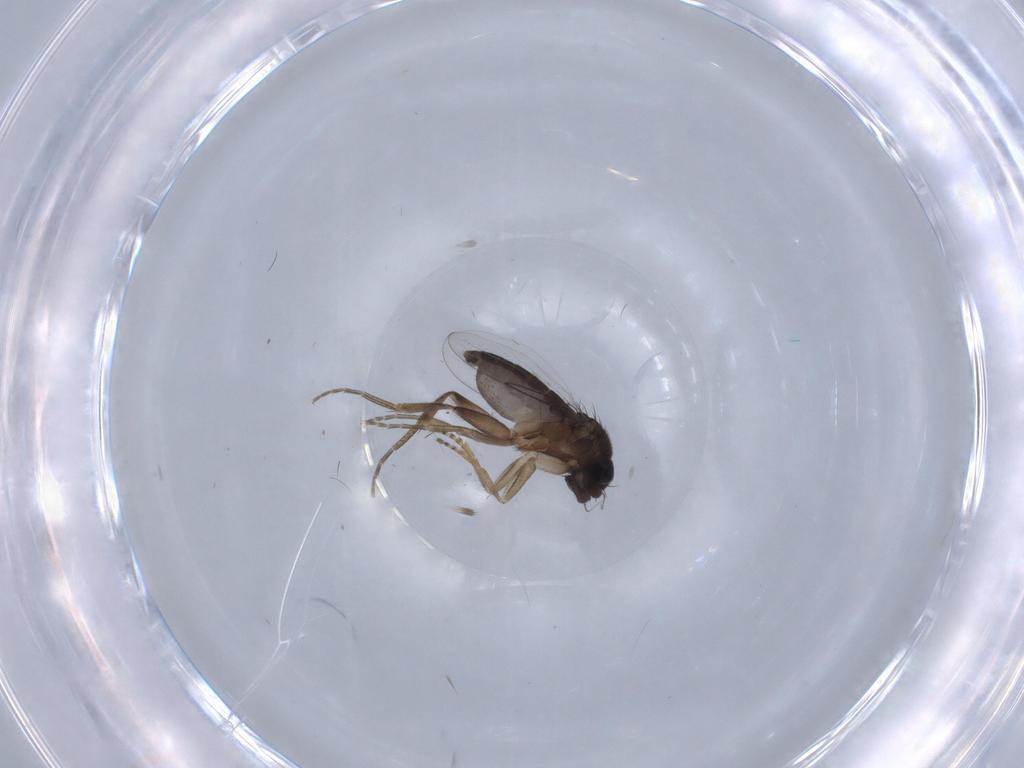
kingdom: Animalia
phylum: Arthropoda
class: Insecta
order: Diptera
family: Phoridae
